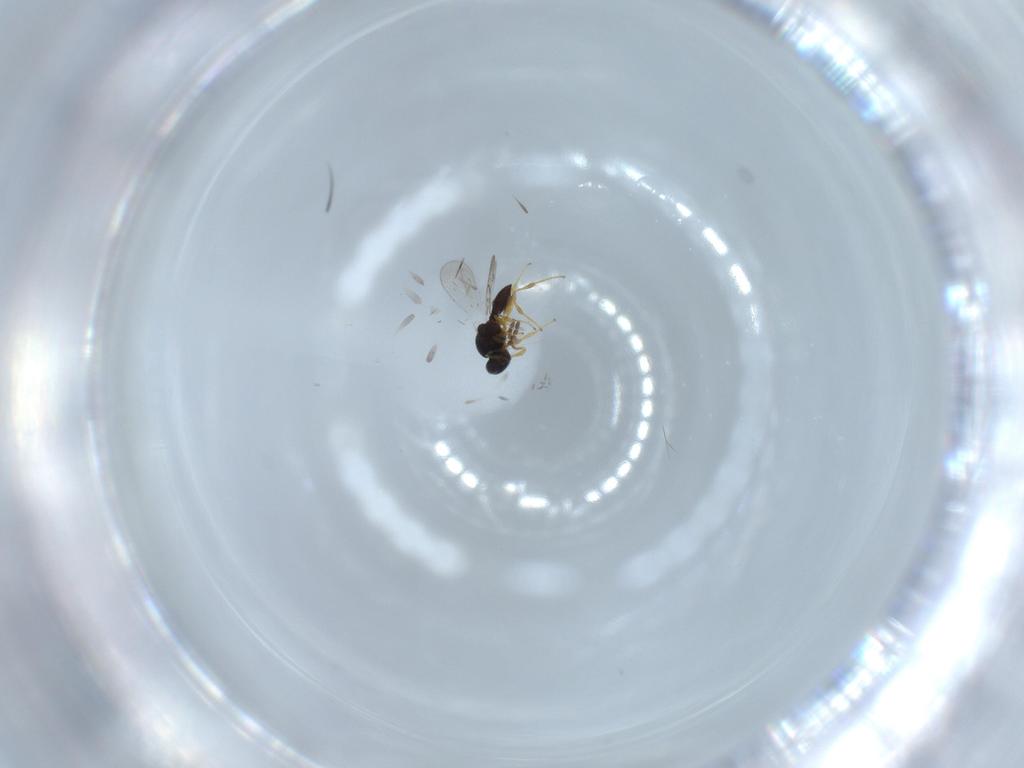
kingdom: Animalia
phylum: Arthropoda
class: Insecta
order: Hymenoptera
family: Platygastridae
